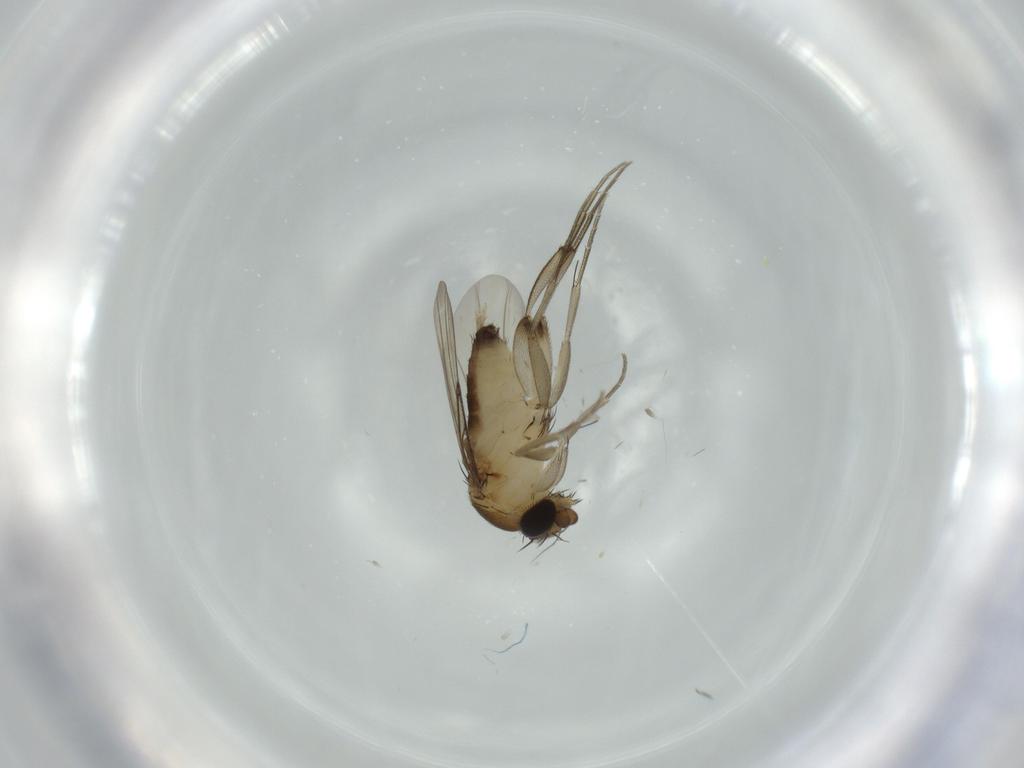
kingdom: Animalia
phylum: Arthropoda
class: Insecta
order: Diptera
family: Phoridae
